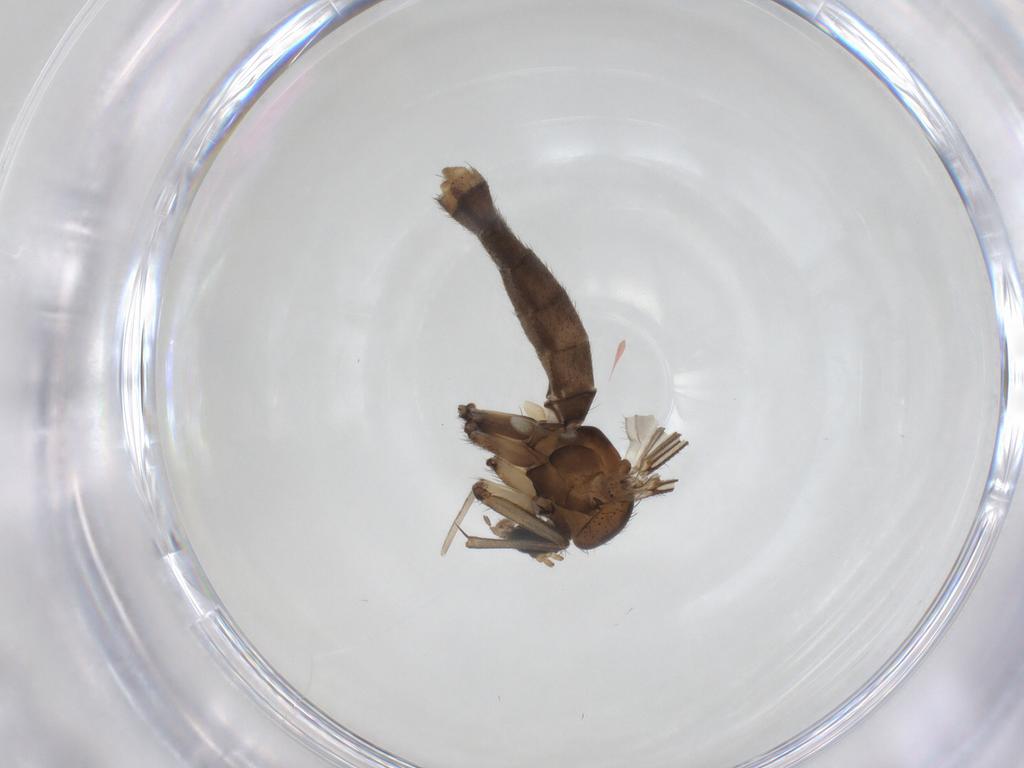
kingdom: Animalia
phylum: Arthropoda
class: Insecta
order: Diptera
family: Mycetophilidae
